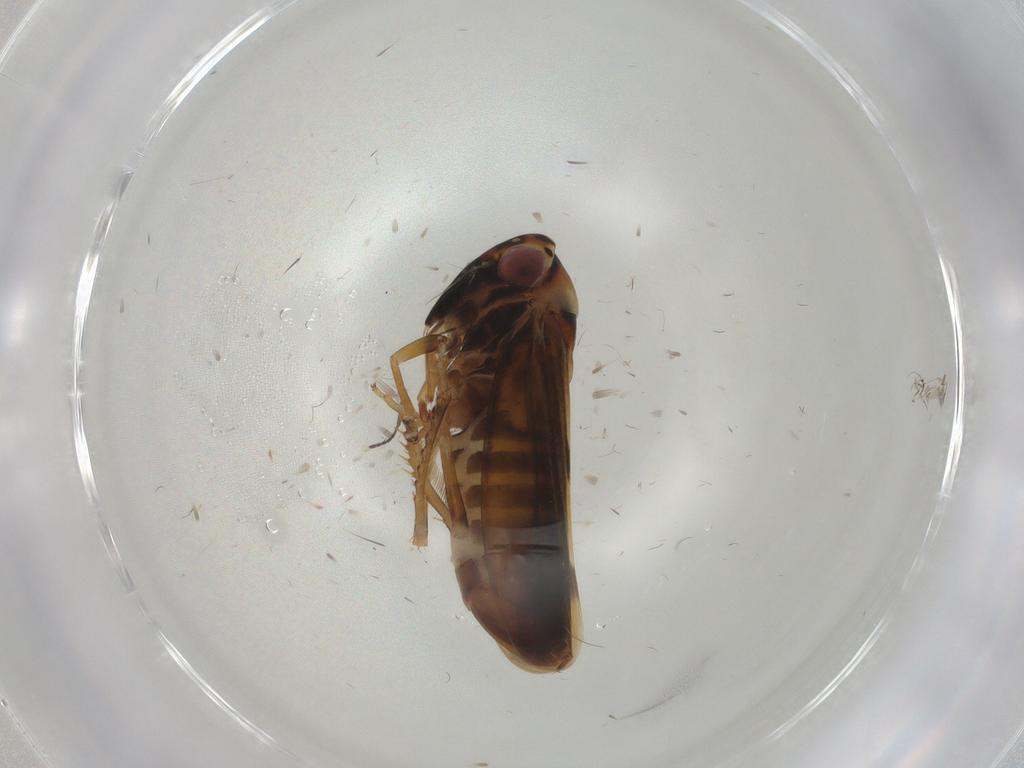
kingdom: Animalia
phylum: Arthropoda
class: Insecta
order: Hemiptera
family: Cicadellidae
